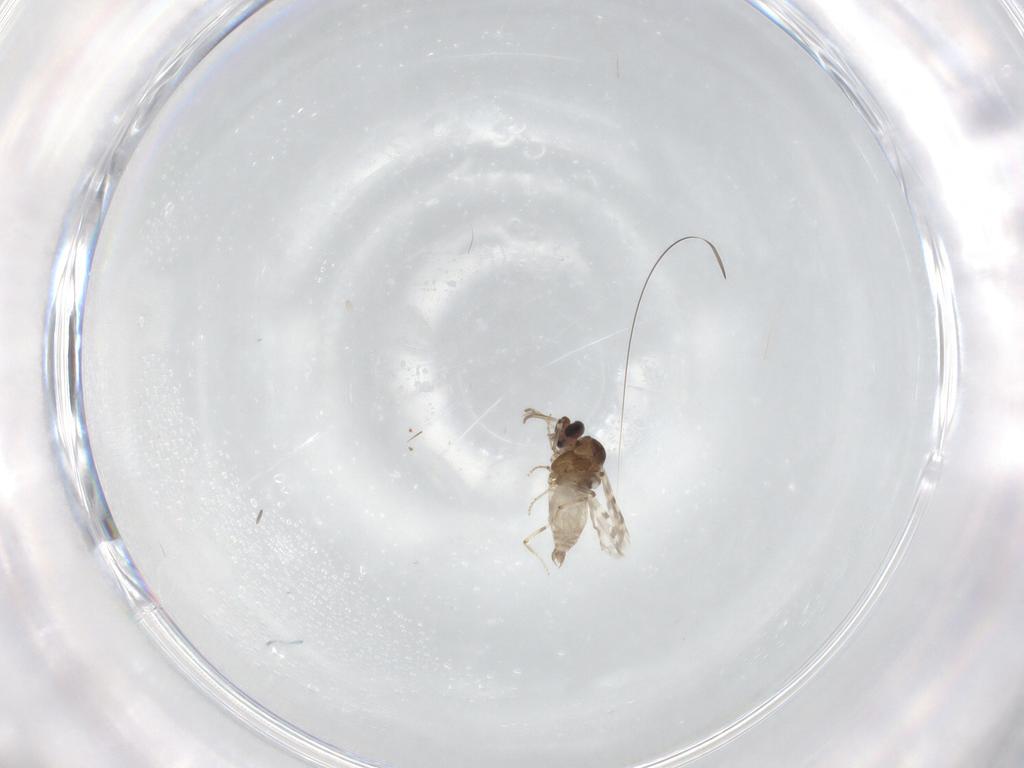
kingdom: Animalia
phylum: Arthropoda
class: Insecta
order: Diptera
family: Ceratopogonidae
